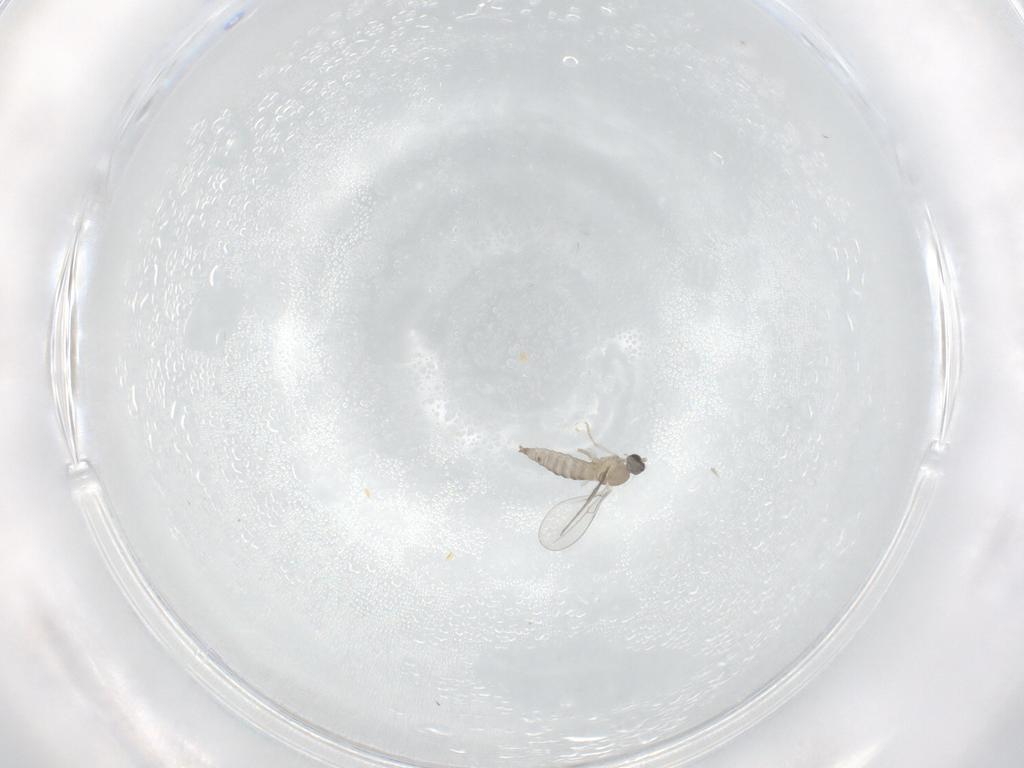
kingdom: Animalia
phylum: Arthropoda
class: Insecta
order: Diptera
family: Cecidomyiidae
